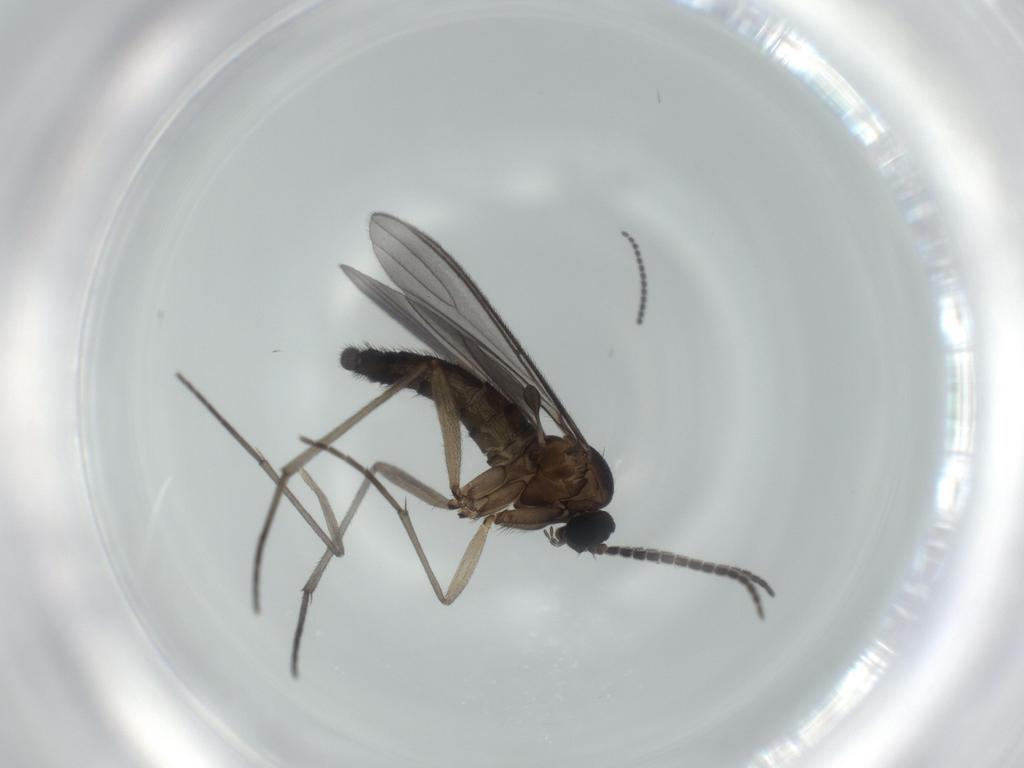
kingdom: Animalia
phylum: Arthropoda
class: Insecta
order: Diptera
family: Sciaridae
